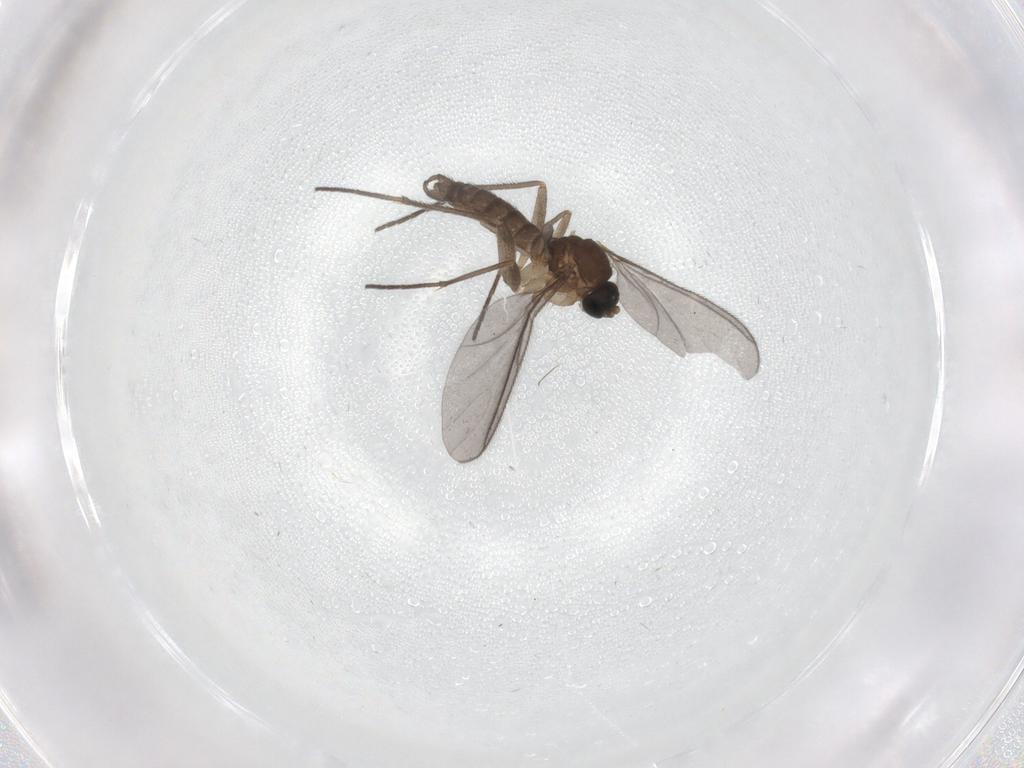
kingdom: Animalia
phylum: Arthropoda
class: Insecta
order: Diptera
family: Sciaridae
